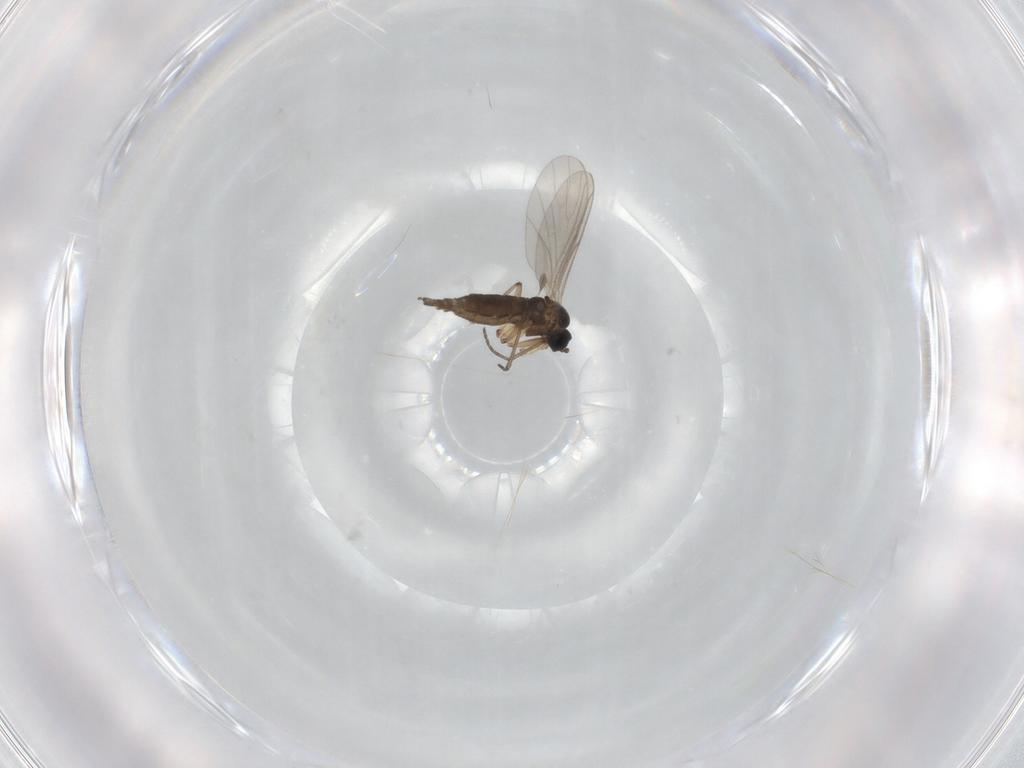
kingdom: Animalia
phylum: Arthropoda
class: Insecta
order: Diptera
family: Sciaridae
